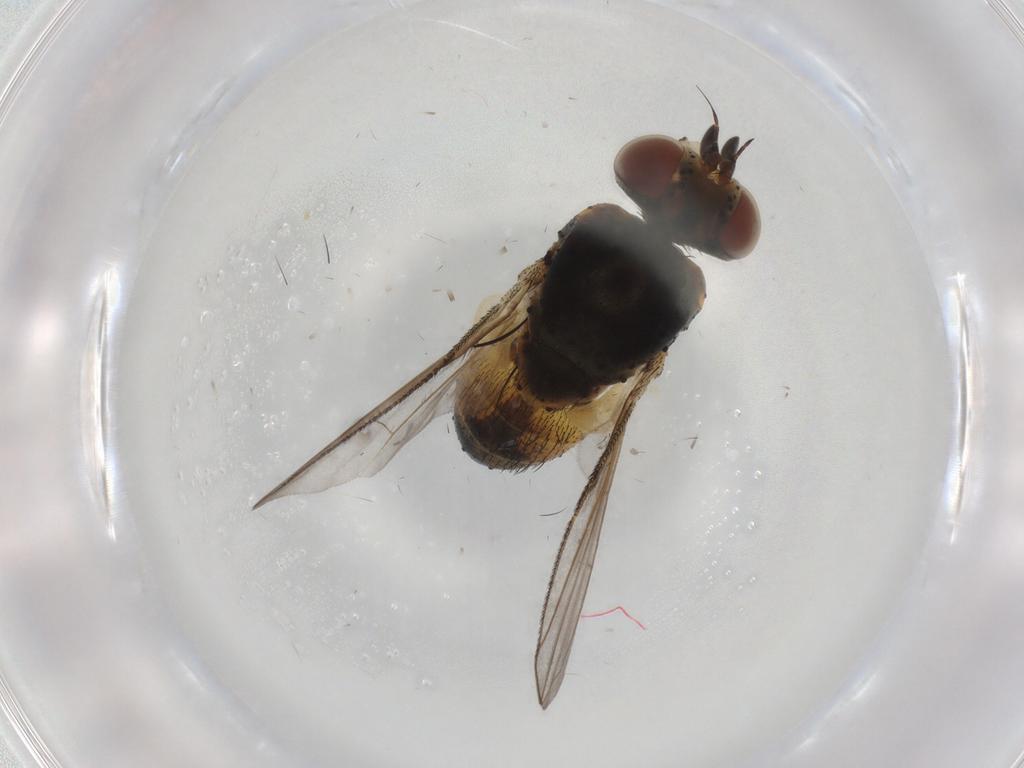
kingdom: Animalia
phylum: Arthropoda
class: Insecta
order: Diptera
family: Tachinidae
